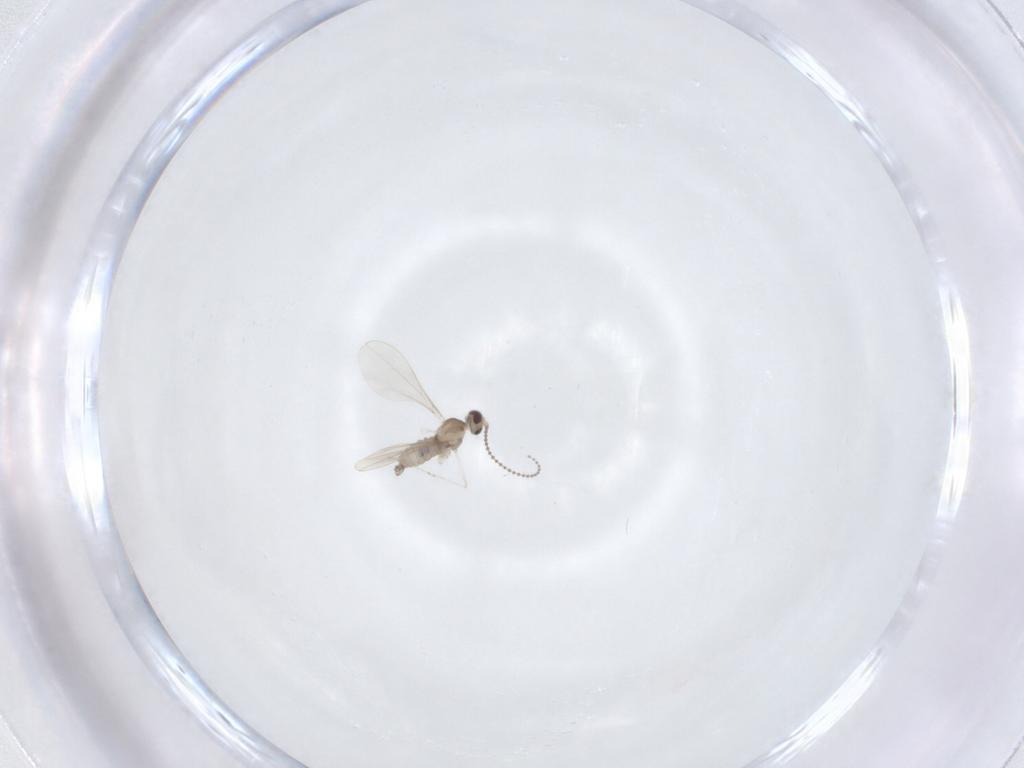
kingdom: Animalia
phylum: Arthropoda
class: Insecta
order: Diptera
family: Cecidomyiidae
